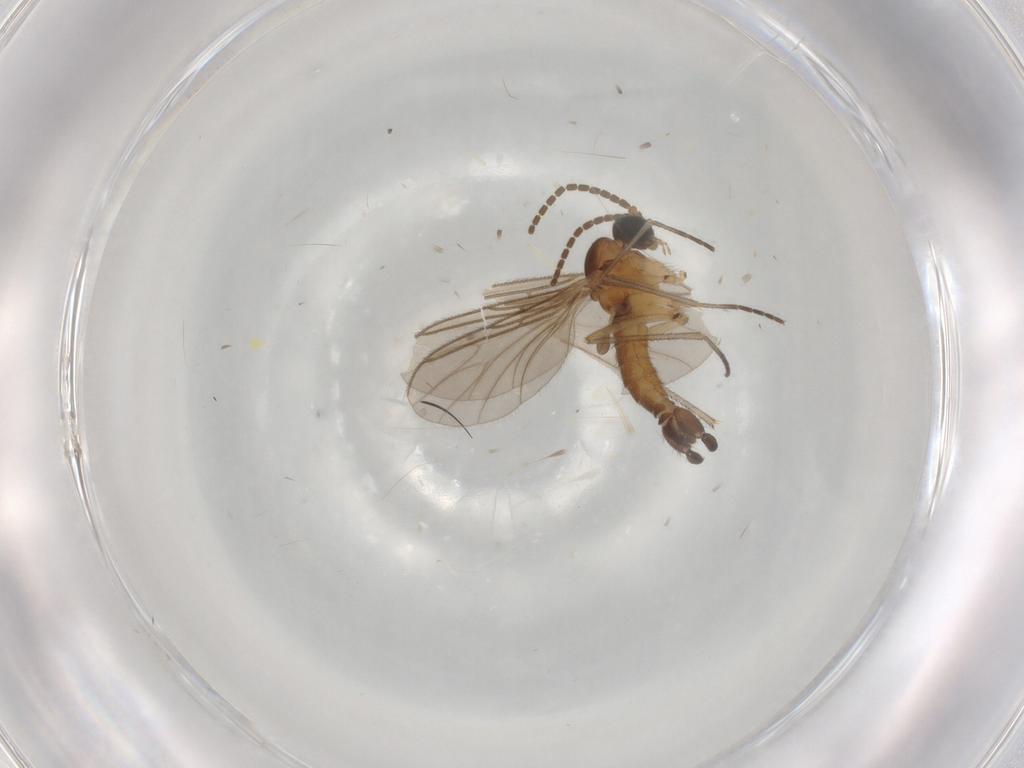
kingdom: Animalia
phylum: Arthropoda
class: Insecta
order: Diptera
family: Sciaridae
